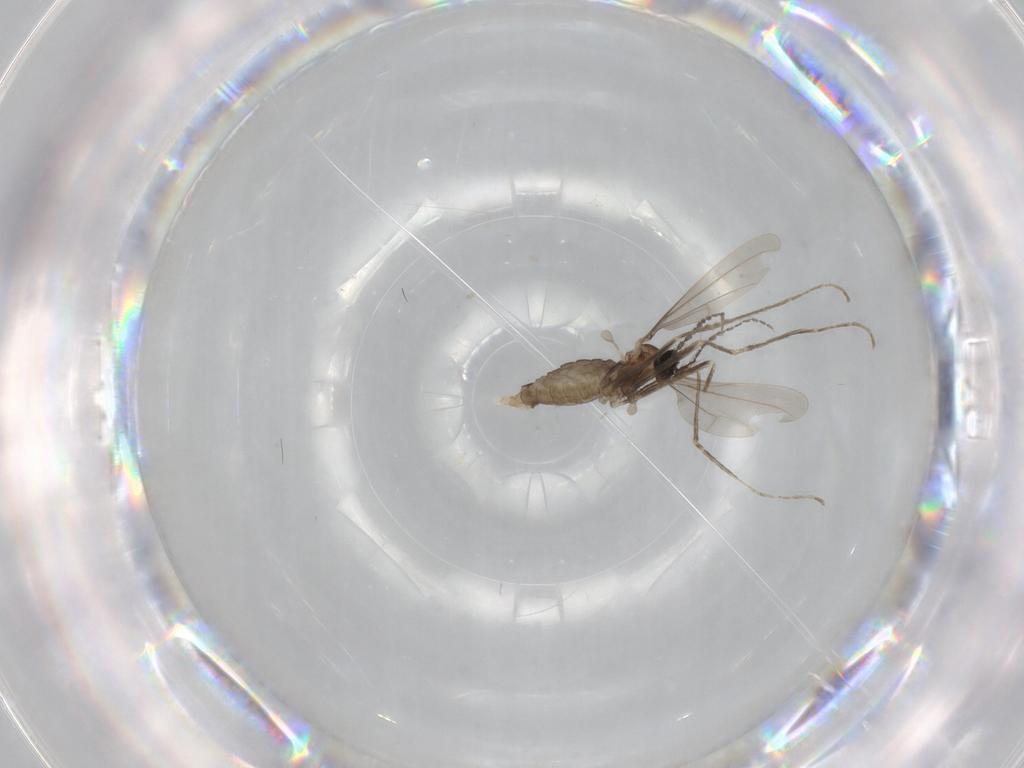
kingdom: Animalia
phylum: Arthropoda
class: Insecta
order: Diptera
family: Cecidomyiidae
